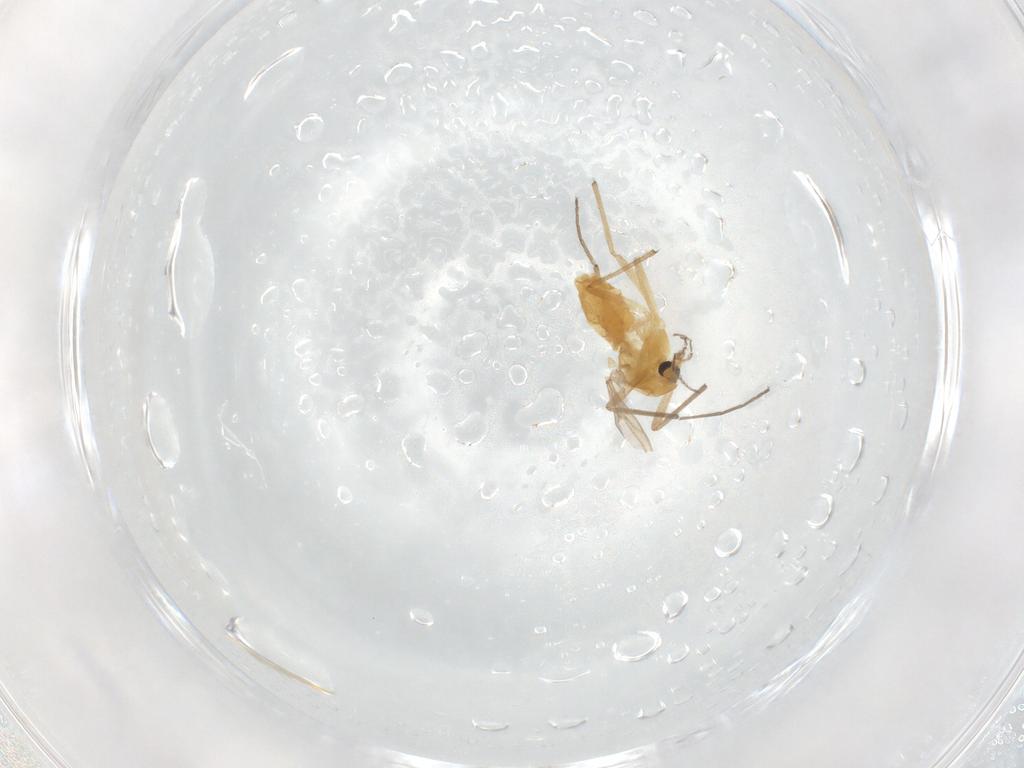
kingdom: Animalia
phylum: Arthropoda
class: Insecta
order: Diptera
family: Chironomidae
